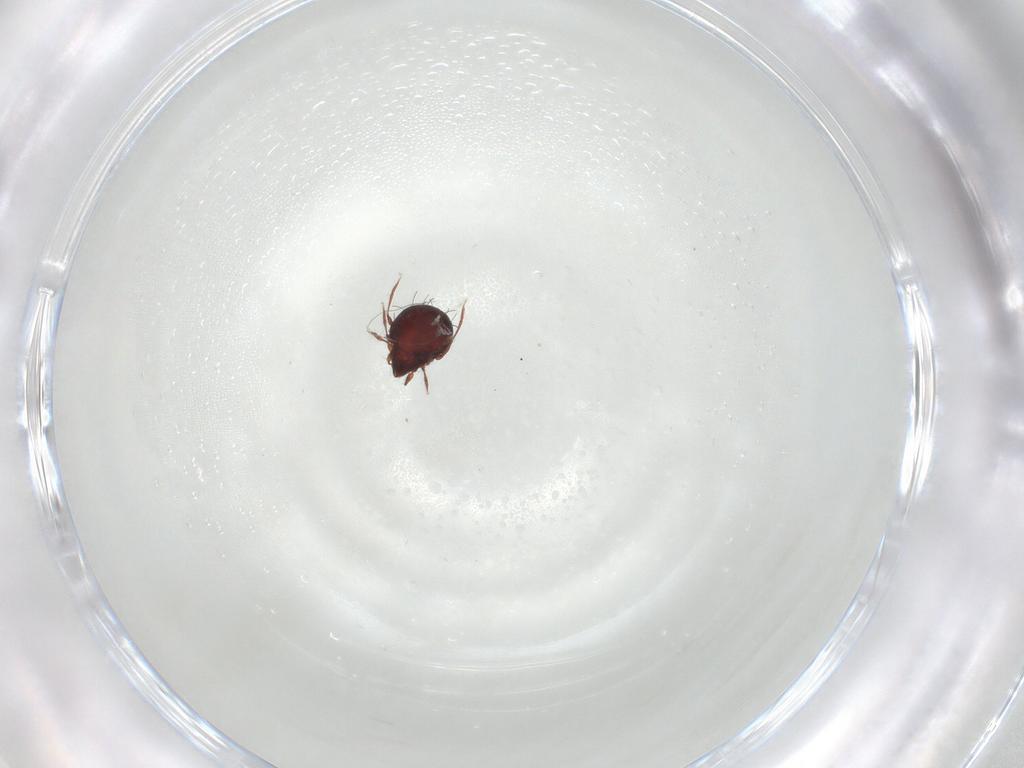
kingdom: Animalia
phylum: Arthropoda
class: Arachnida
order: Sarcoptiformes
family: Caloppiidae
